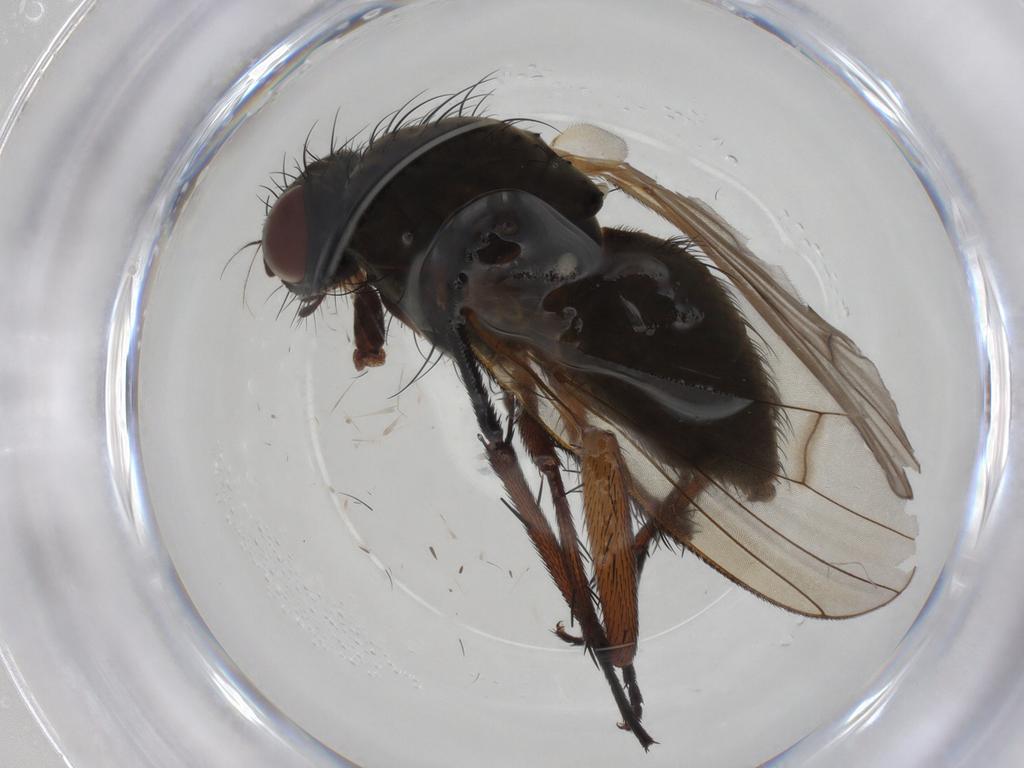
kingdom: Animalia
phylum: Arthropoda
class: Insecta
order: Diptera
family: Anthomyiidae
